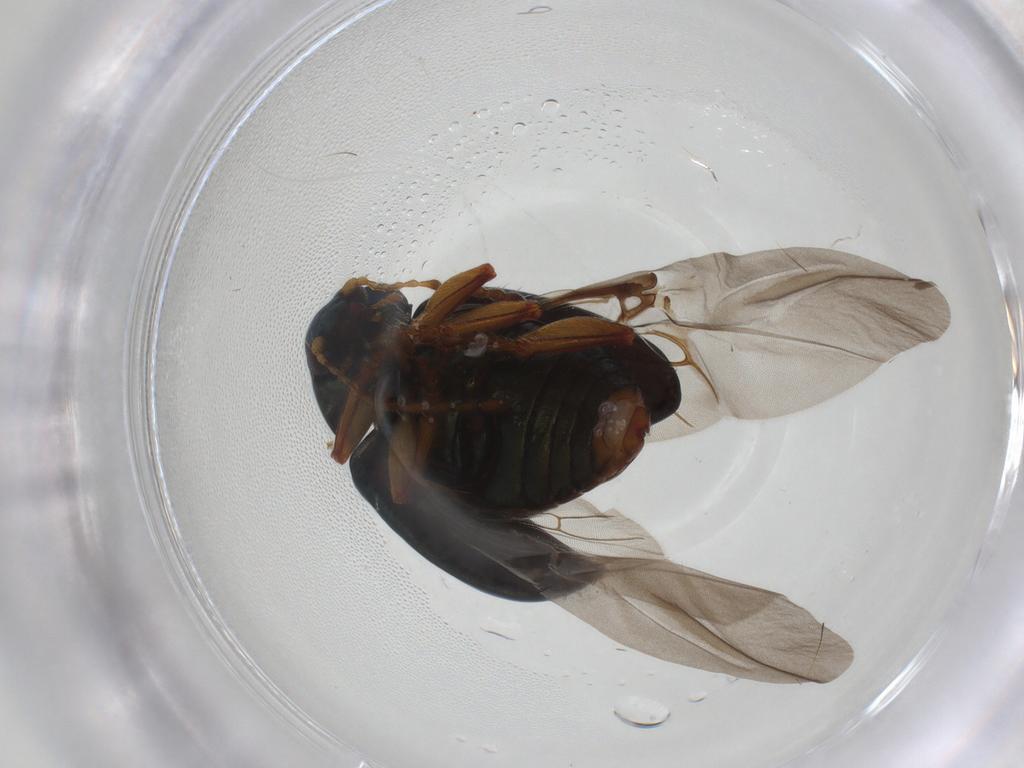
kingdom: Animalia
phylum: Arthropoda
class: Insecta
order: Coleoptera
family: Chrysomelidae
